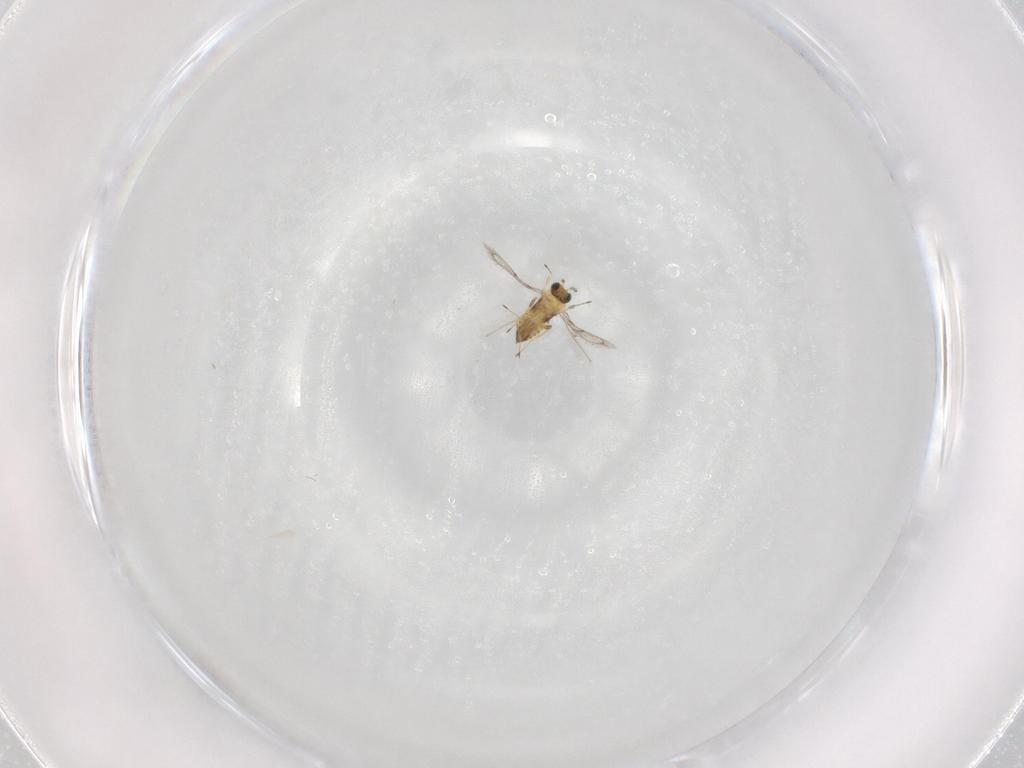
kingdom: Animalia
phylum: Arthropoda
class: Insecta
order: Hymenoptera
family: Trichogrammatidae
